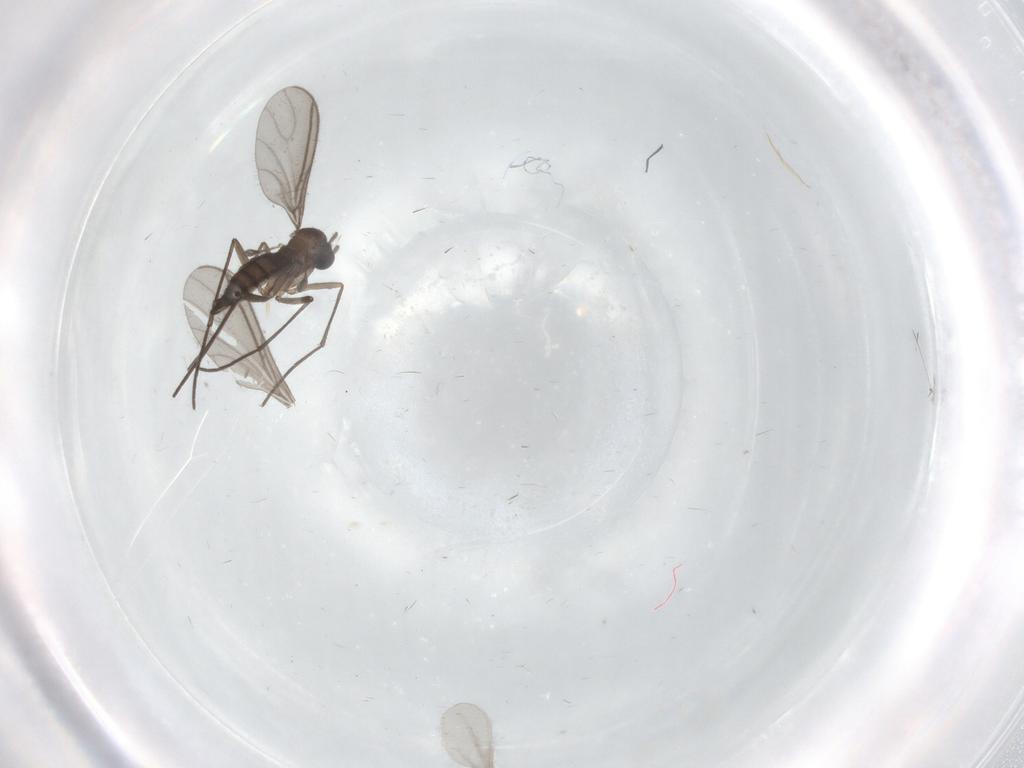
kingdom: Animalia
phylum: Arthropoda
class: Insecta
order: Diptera
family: Sciaridae
